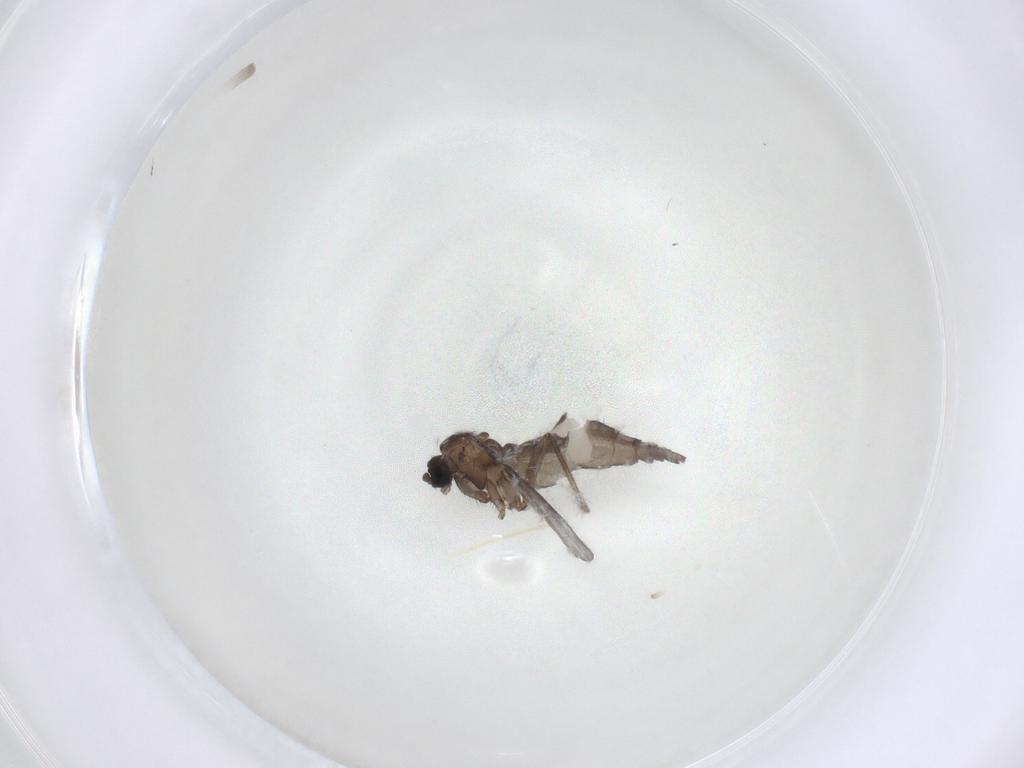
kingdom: Animalia
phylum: Arthropoda
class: Insecta
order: Diptera
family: Sciaridae
